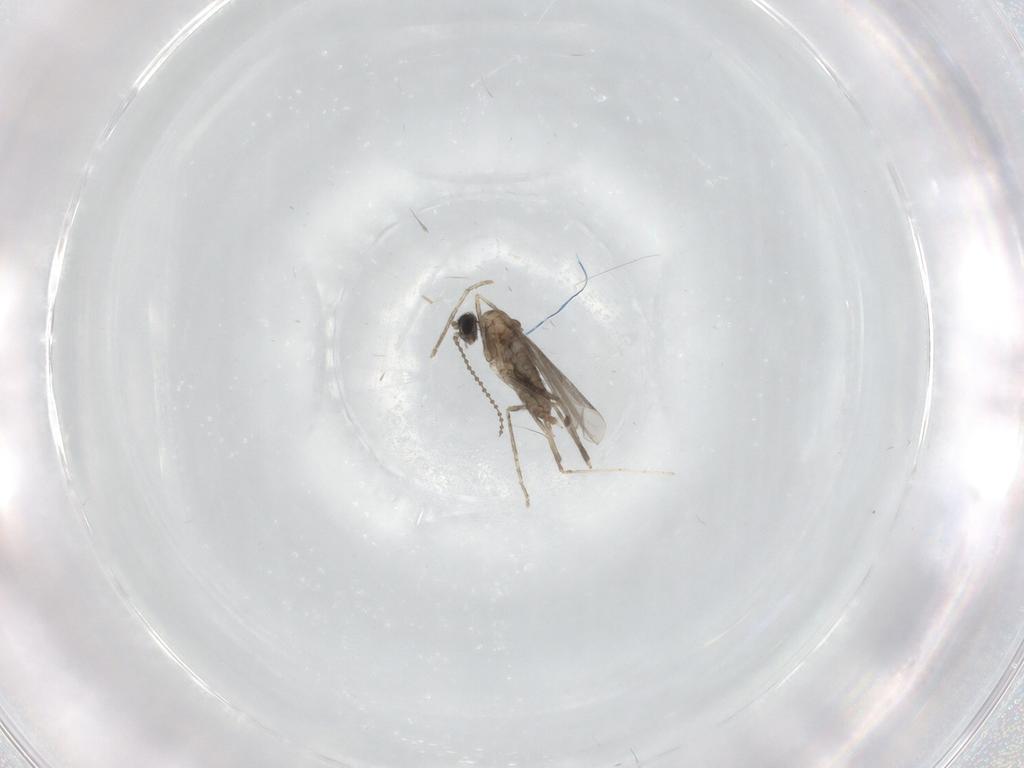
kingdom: Animalia
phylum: Arthropoda
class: Insecta
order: Diptera
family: Cecidomyiidae
